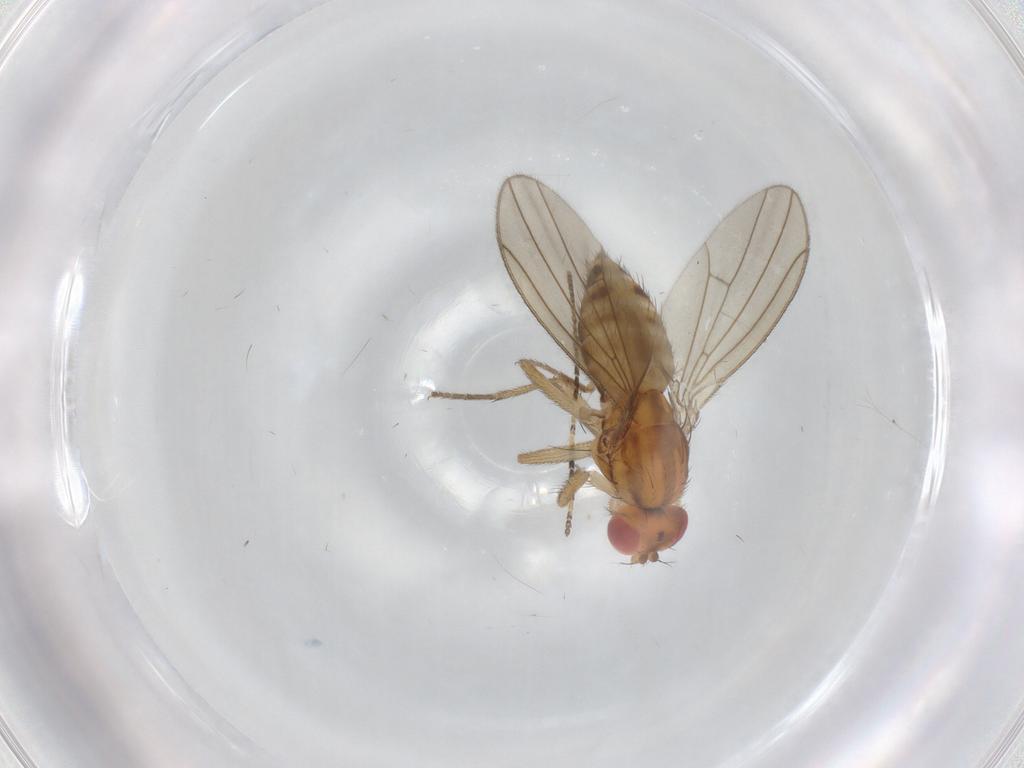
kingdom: Animalia
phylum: Arthropoda
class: Insecta
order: Diptera
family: Drosophilidae
